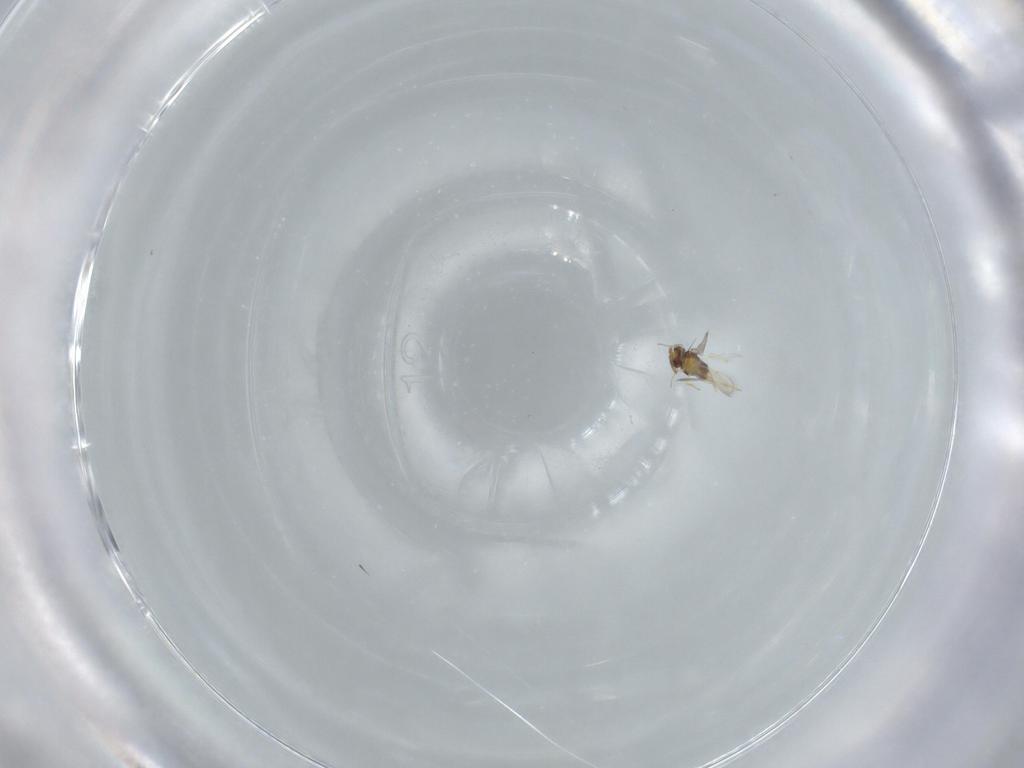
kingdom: Animalia
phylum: Arthropoda
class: Insecta
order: Hymenoptera
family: Aphelinidae
